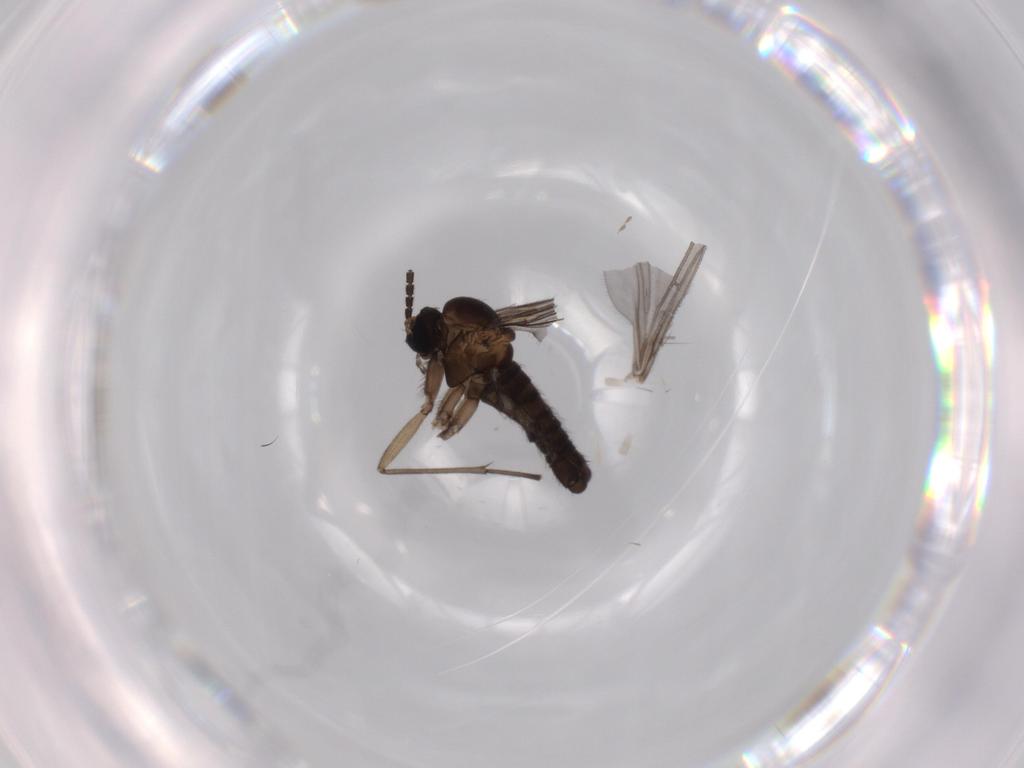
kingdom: Animalia
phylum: Arthropoda
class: Insecta
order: Diptera
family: Sciaridae
